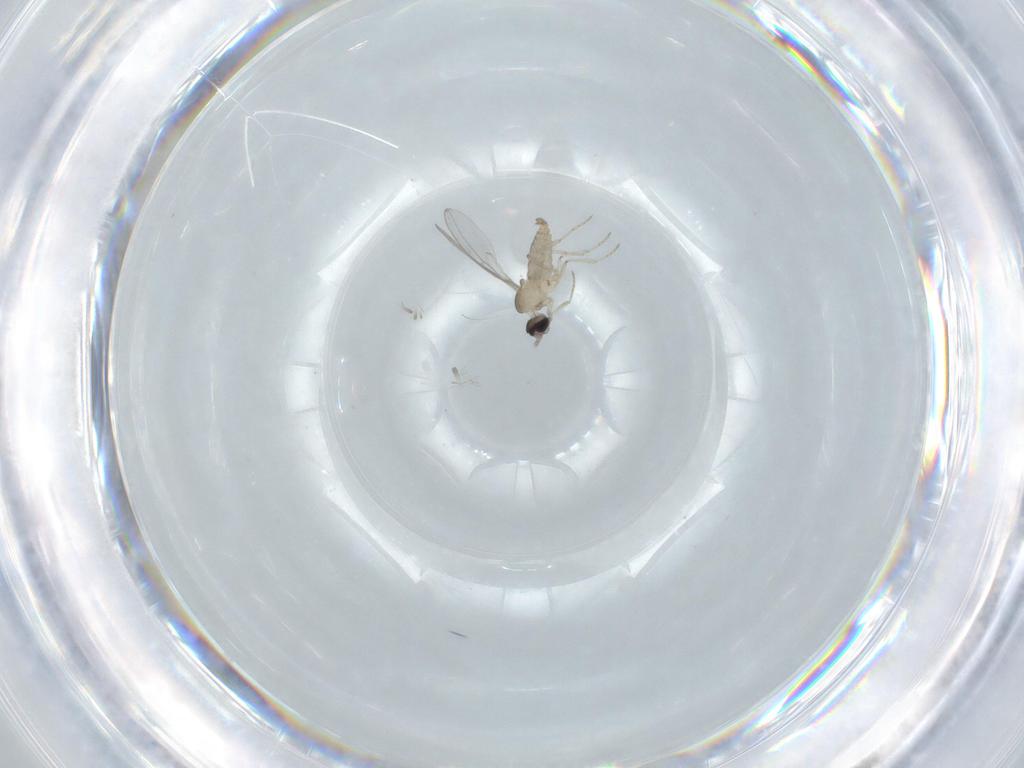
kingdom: Animalia
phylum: Arthropoda
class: Insecta
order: Diptera
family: Cecidomyiidae
